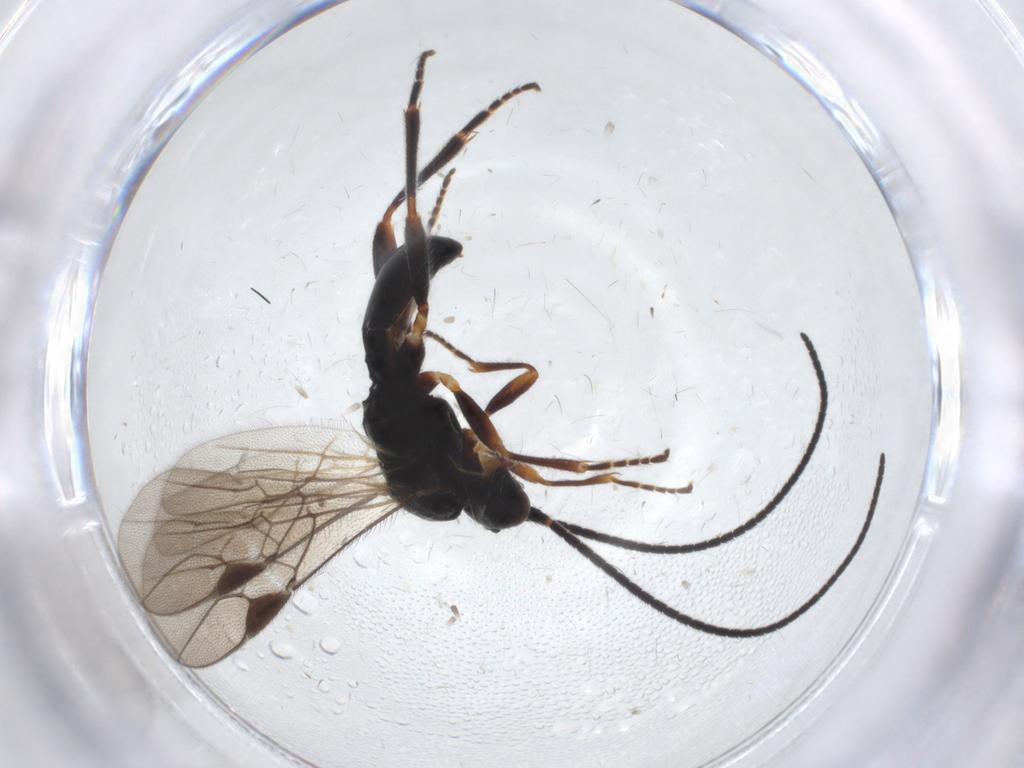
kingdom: Animalia
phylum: Arthropoda
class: Insecta
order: Hymenoptera
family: Braconidae
